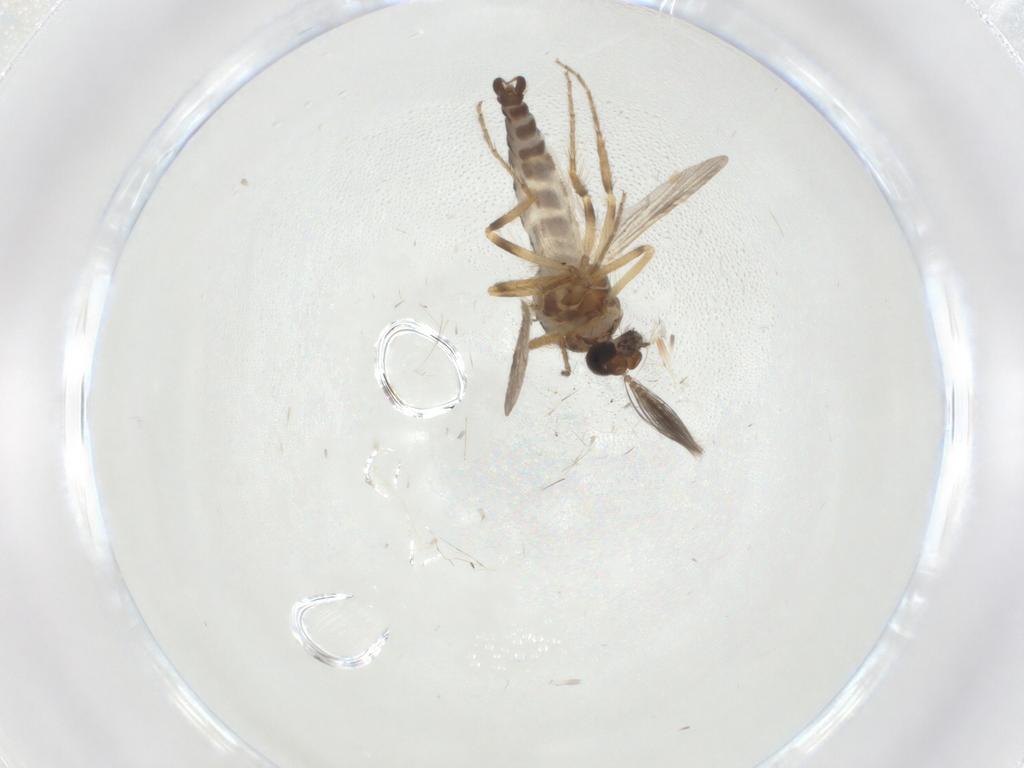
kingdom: Animalia
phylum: Arthropoda
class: Insecta
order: Diptera
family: Ceratopogonidae
